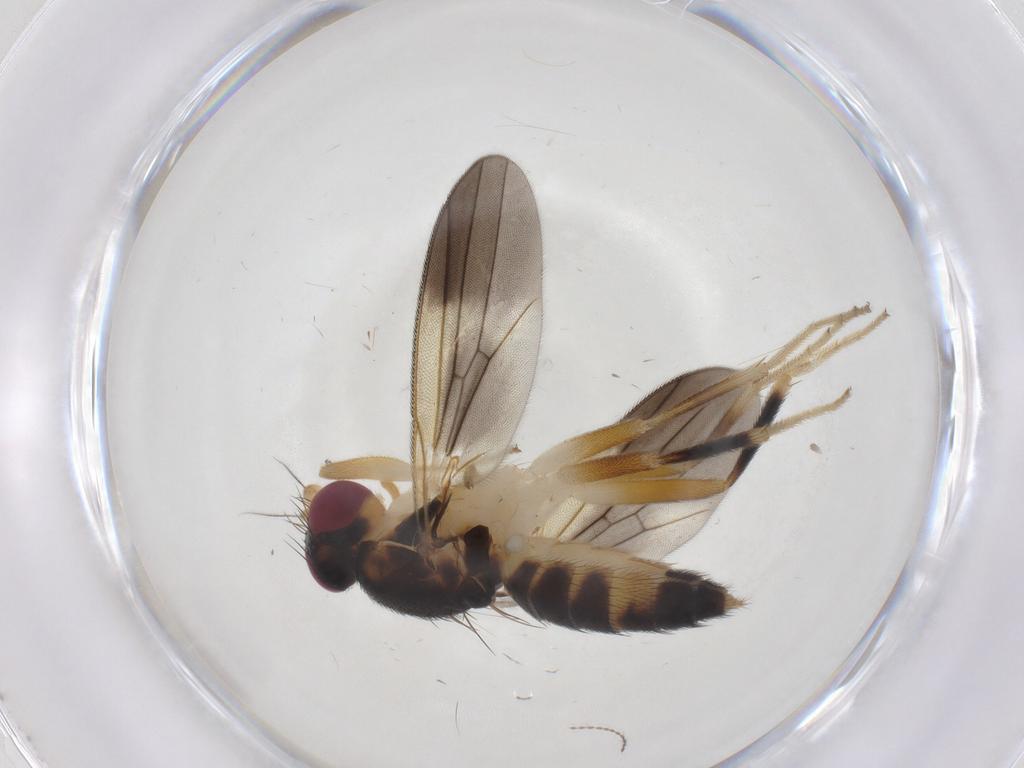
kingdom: Animalia
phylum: Arthropoda
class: Insecta
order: Diptera
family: Clusiidae
